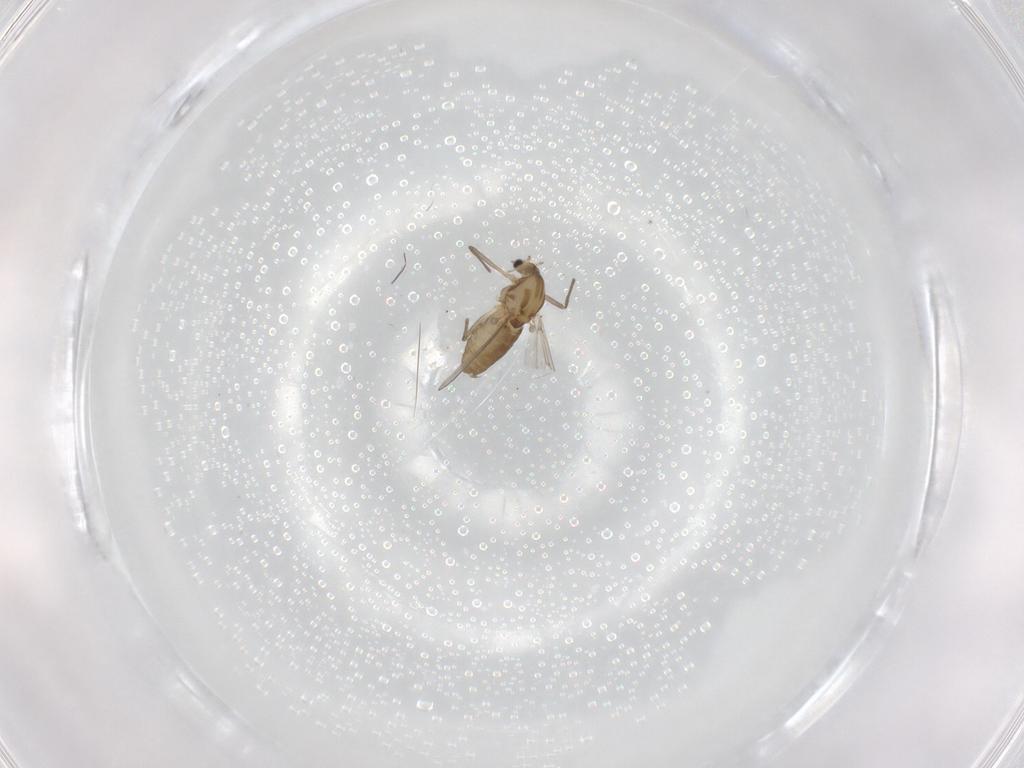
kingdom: Animalia
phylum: Arthropoda
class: Insecta
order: Diptera
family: Chironomidae
